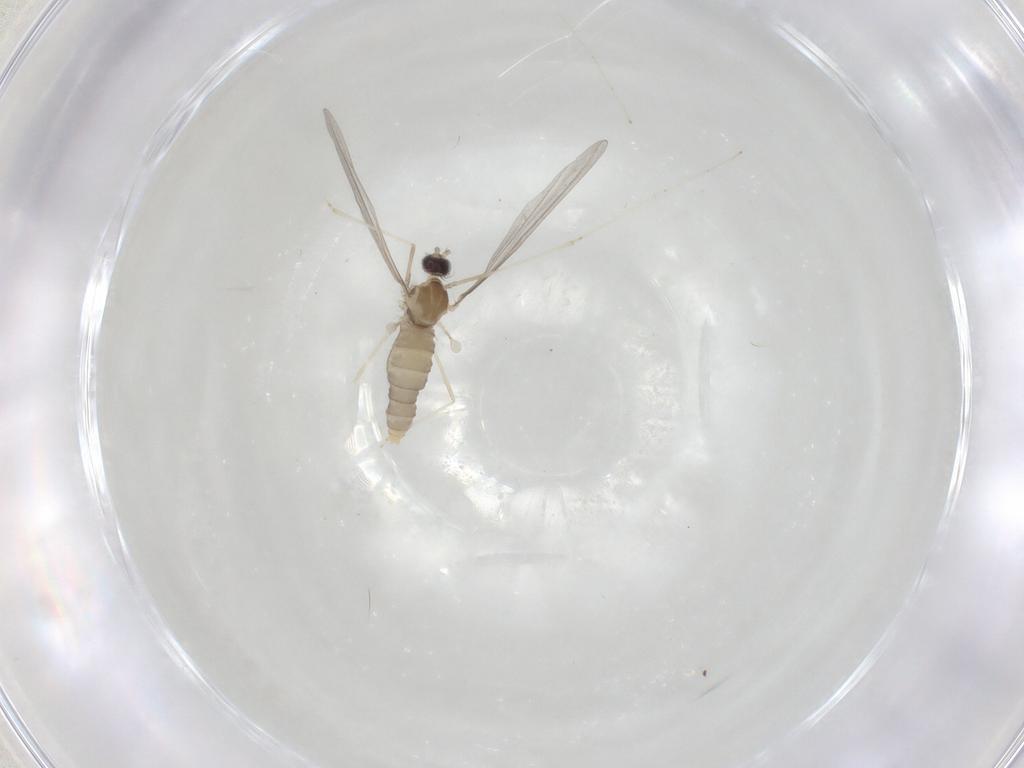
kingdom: Animalia
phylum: Arthropoda
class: Insecta
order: Diptera
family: Cecidomyiidae
